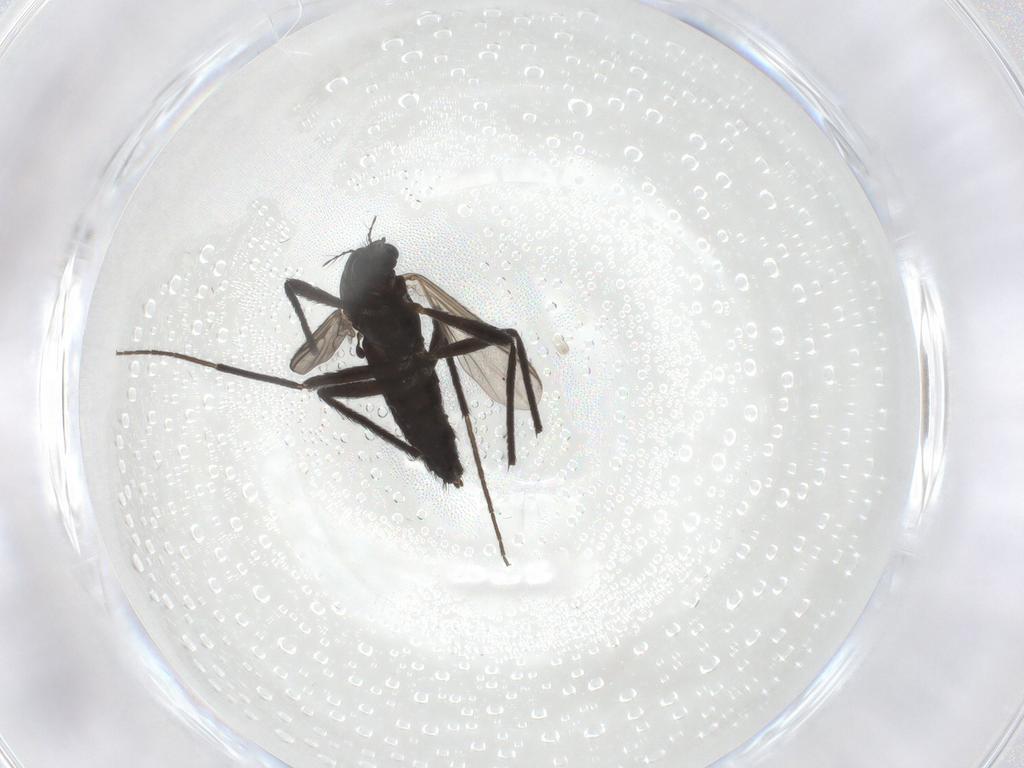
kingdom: Animalia
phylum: Arthropoda
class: Insecta
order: Diptera
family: Chironomidae
